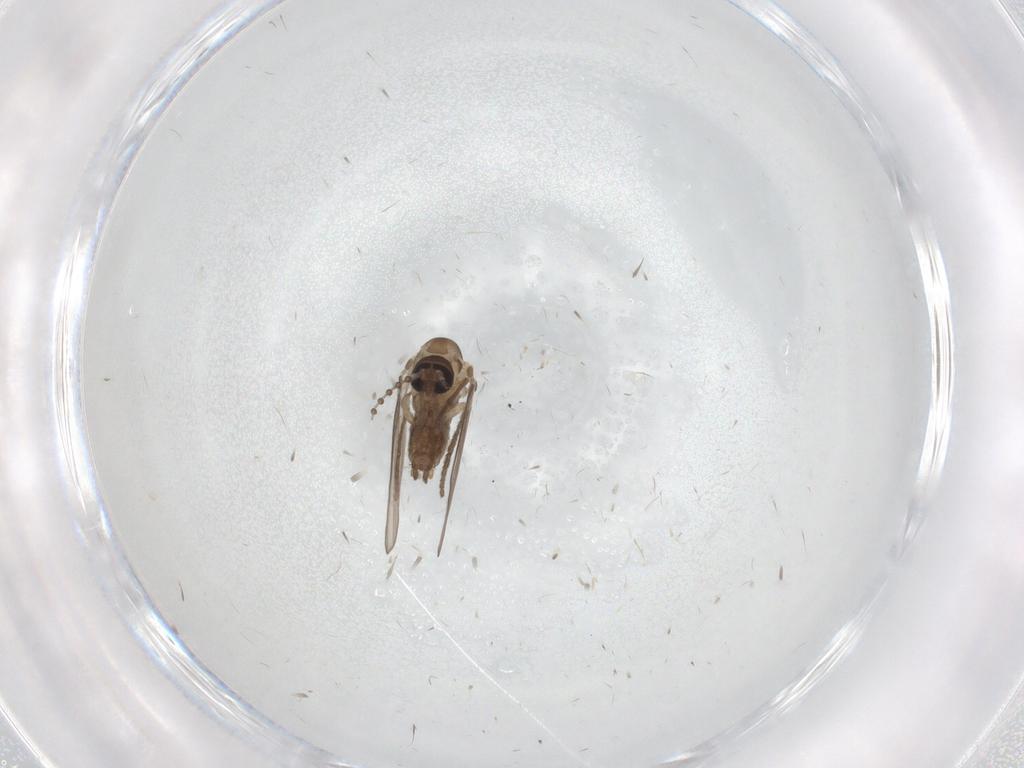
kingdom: Animalia
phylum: Arthropoda
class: Insecta
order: Diptera
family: Psychodidae
